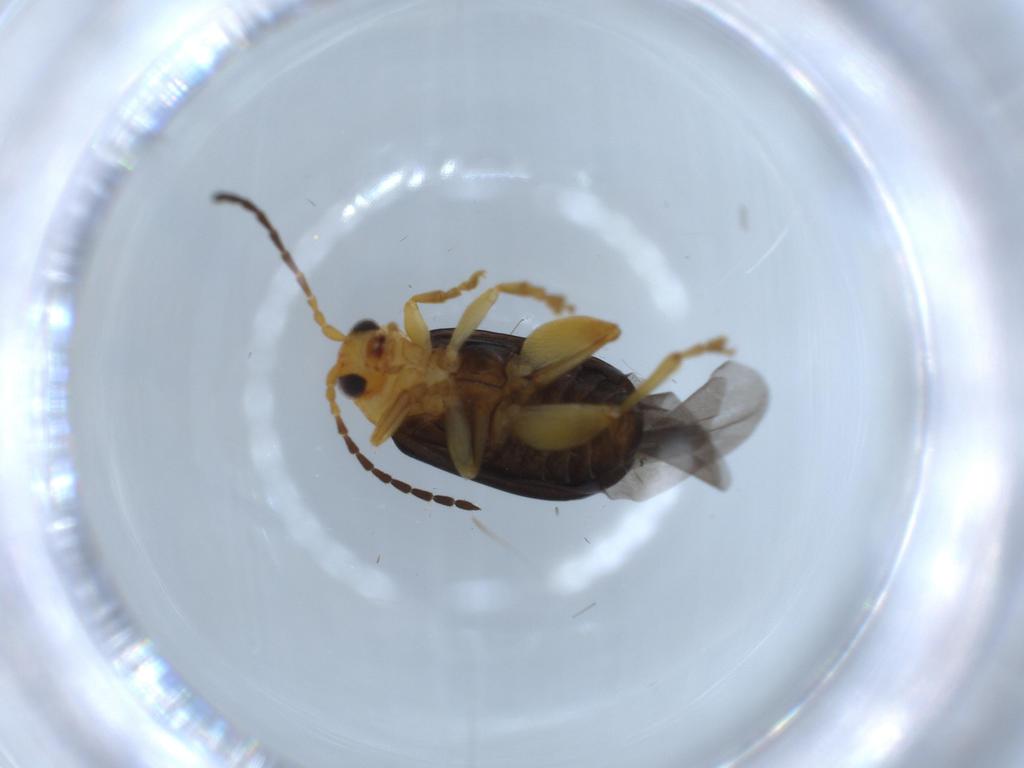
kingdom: Animalia
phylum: Arthropoda
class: Insecta
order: Coleoptera
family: Chrysomelidae
